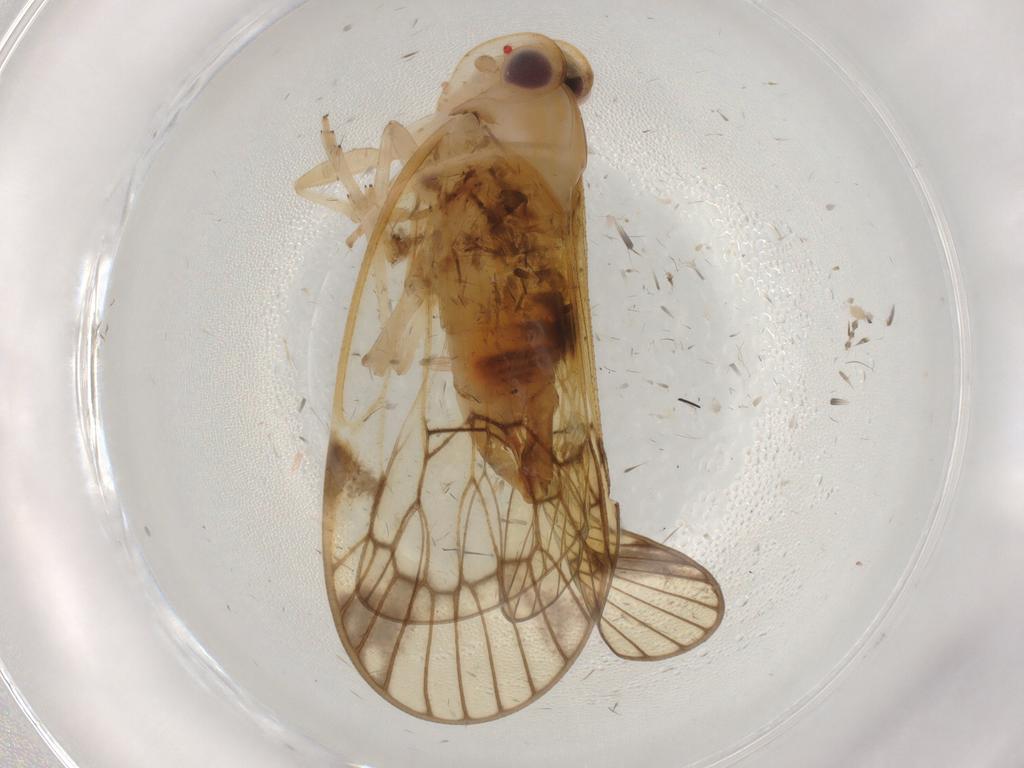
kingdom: Animalia
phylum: Arthropoda
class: Insecta
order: Hemiptera
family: Cixiidae
